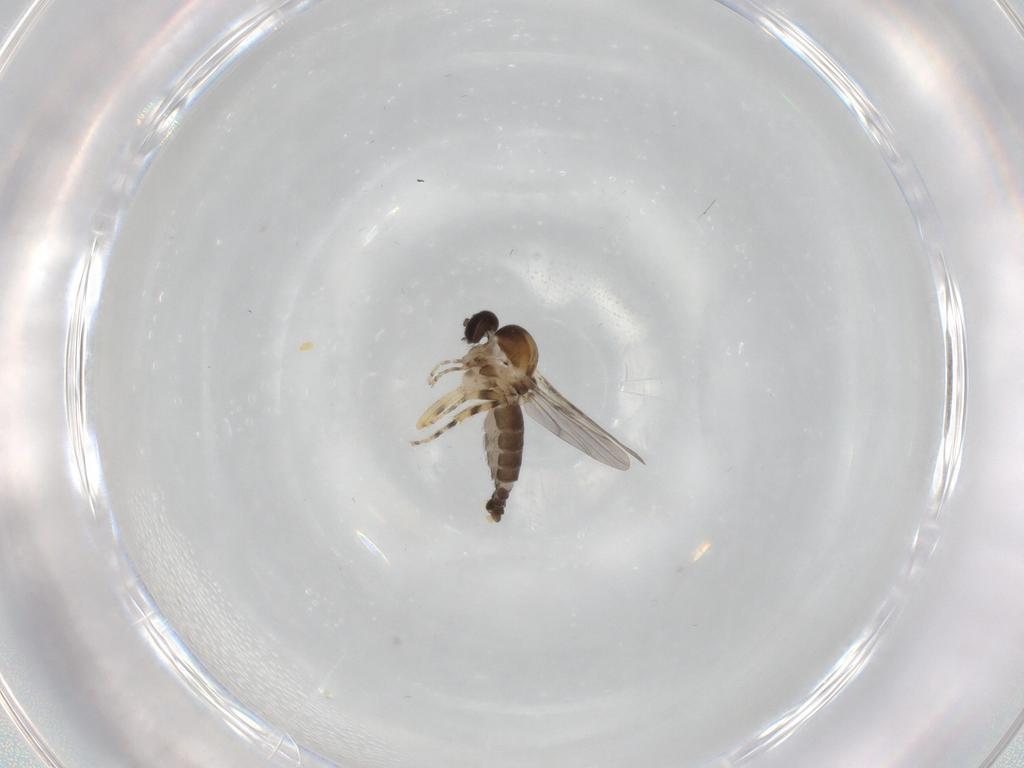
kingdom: Animalia
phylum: Arthropoda
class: Insecta
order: Diptera
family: Ceratopogonidae
